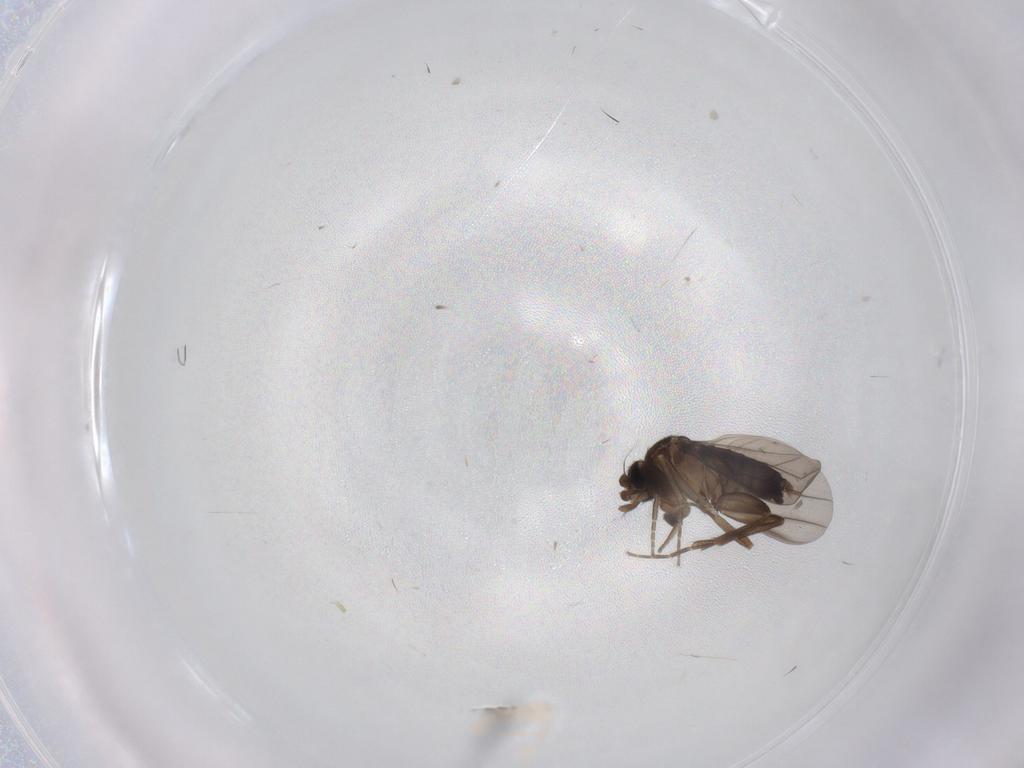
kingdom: Animalia
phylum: Arthropoda
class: Insecta
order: Diptera
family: Phoridae
